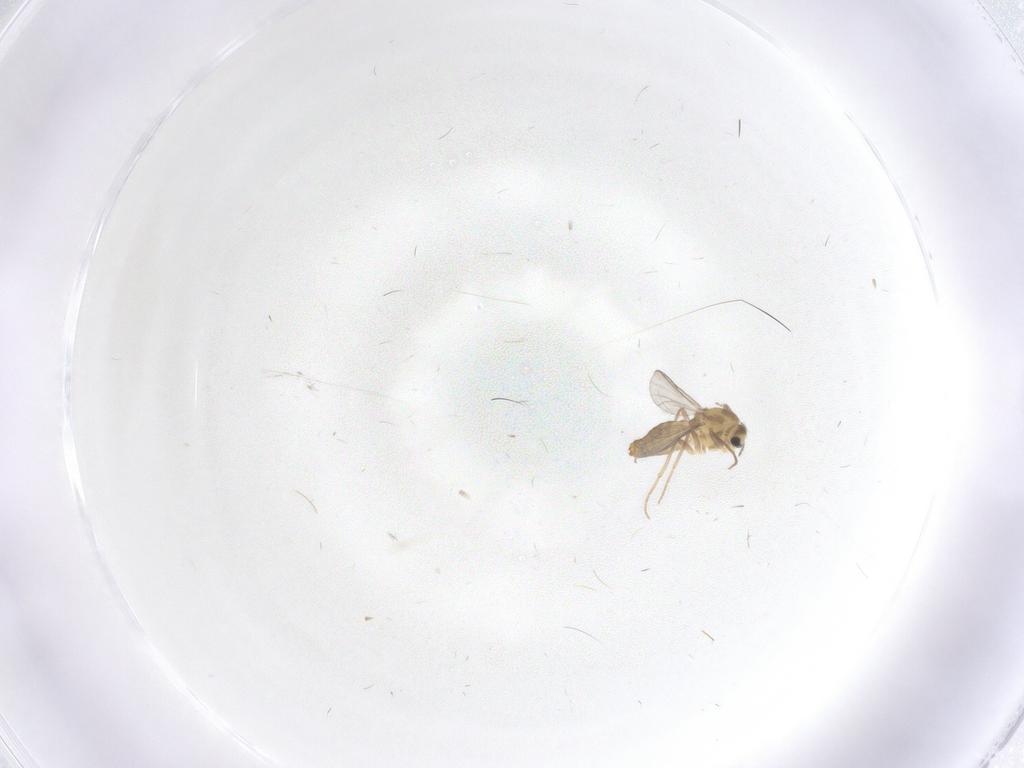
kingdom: Animalia
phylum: Arthropoda
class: Insecta
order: Diptera
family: Chironomidae
